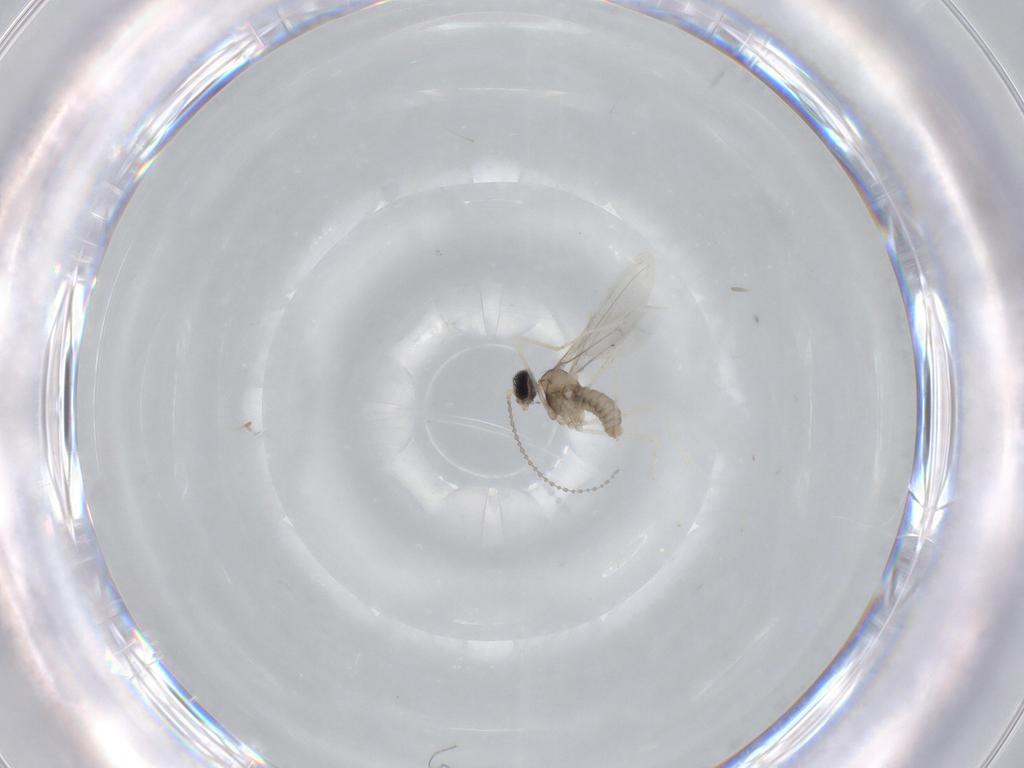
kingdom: Animalia
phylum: Arthropoda
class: Insecta
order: Diptera
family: Cecidomyiidae
